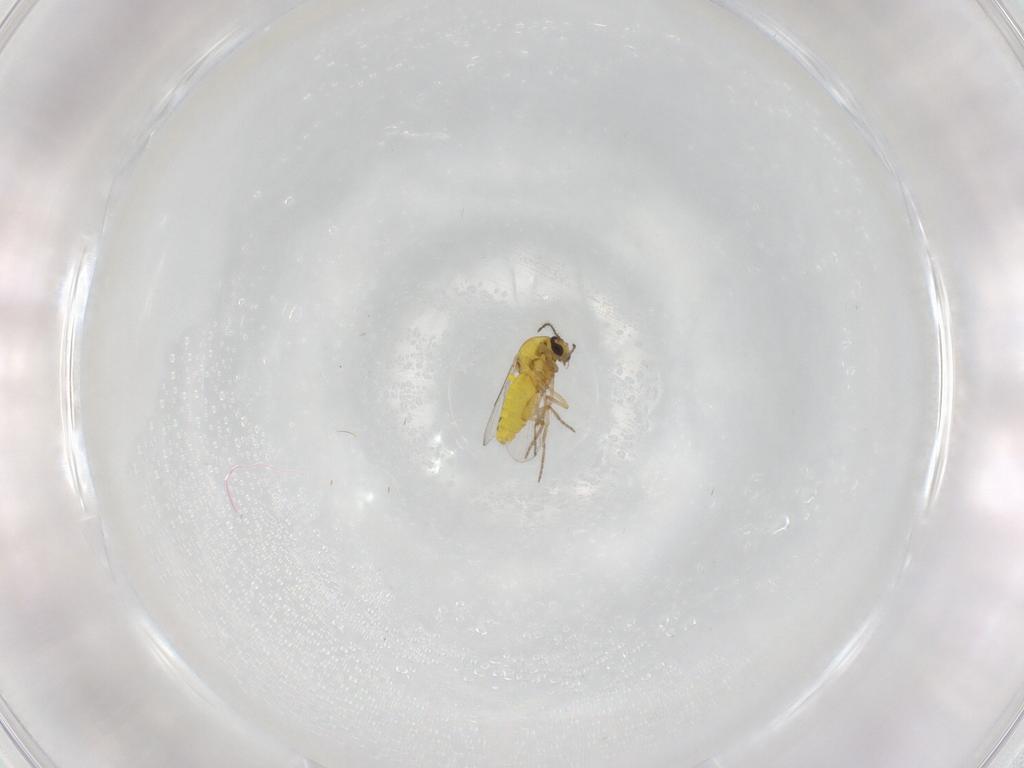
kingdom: Animalia
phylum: Arthropoda
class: Insecta
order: Diptera
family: Ceratopogonidae
